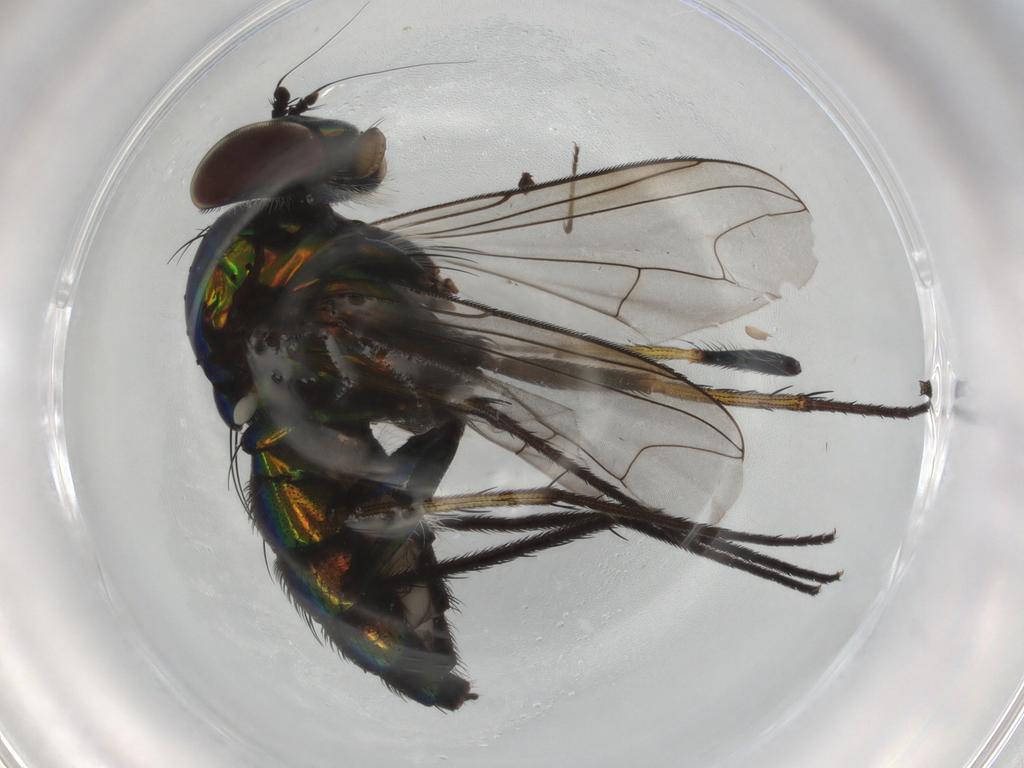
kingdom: Animalia
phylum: Arthropoda
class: Insecta
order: Diptera
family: Dolichopodidae
